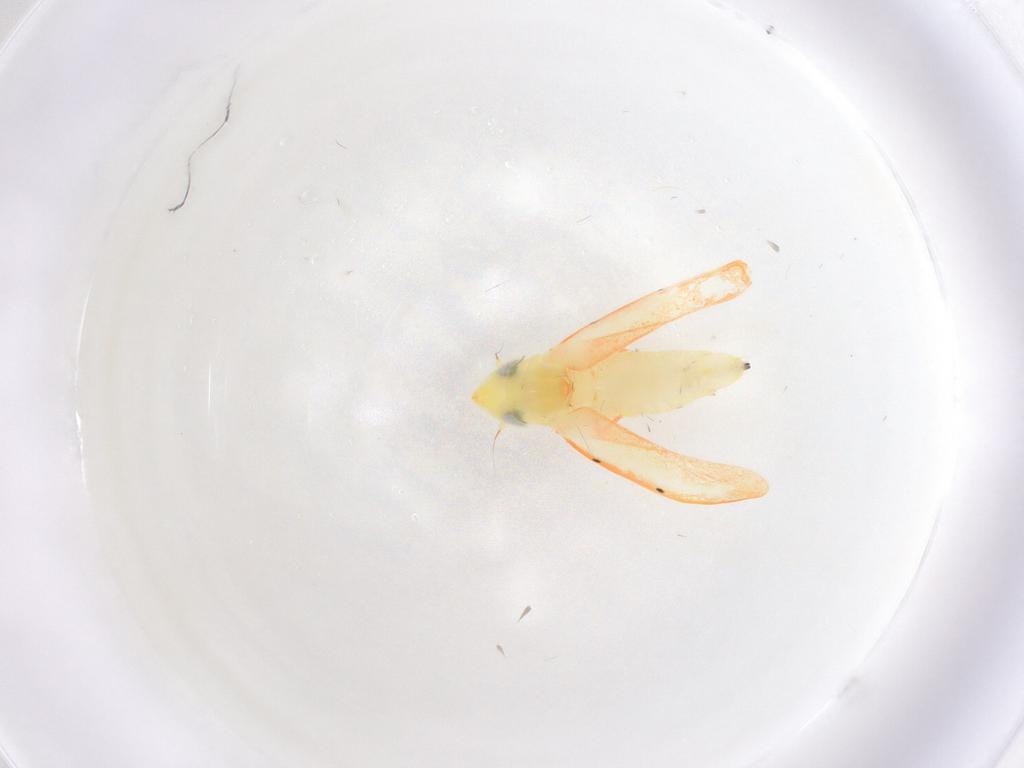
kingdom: Animalia
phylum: Arthropoda
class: Insecta
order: Hemiptera
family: Cicadellidae
